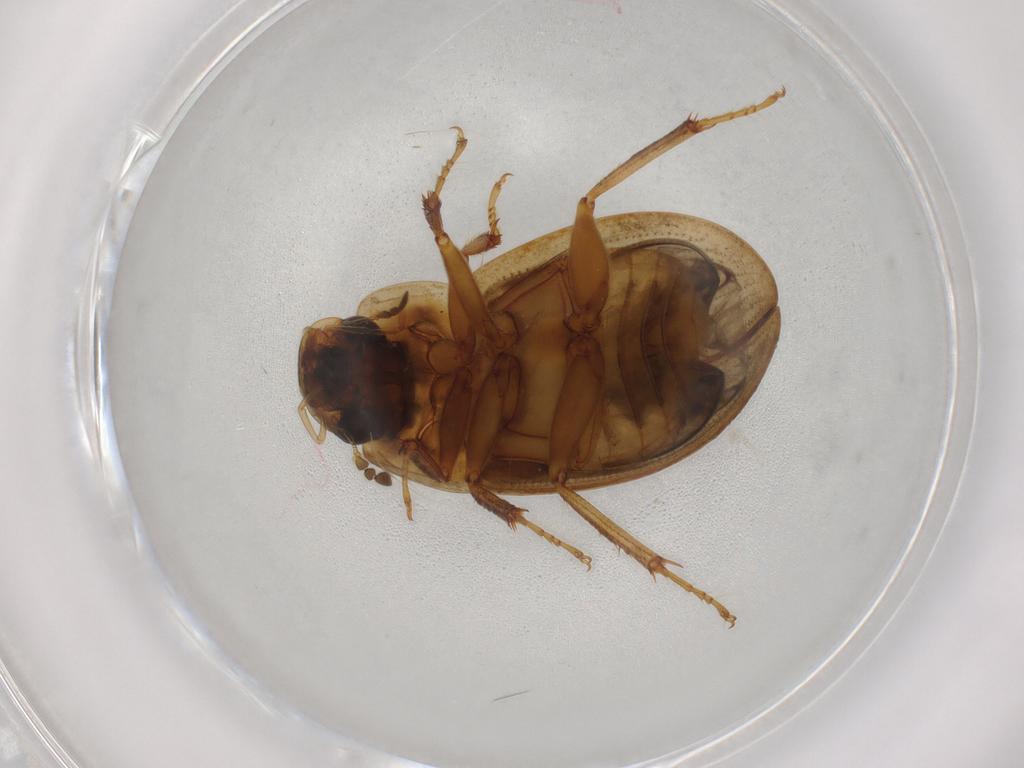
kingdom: Animalia
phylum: Arthropoda
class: Insecta
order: Coleoptera
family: Hydrophilidae
